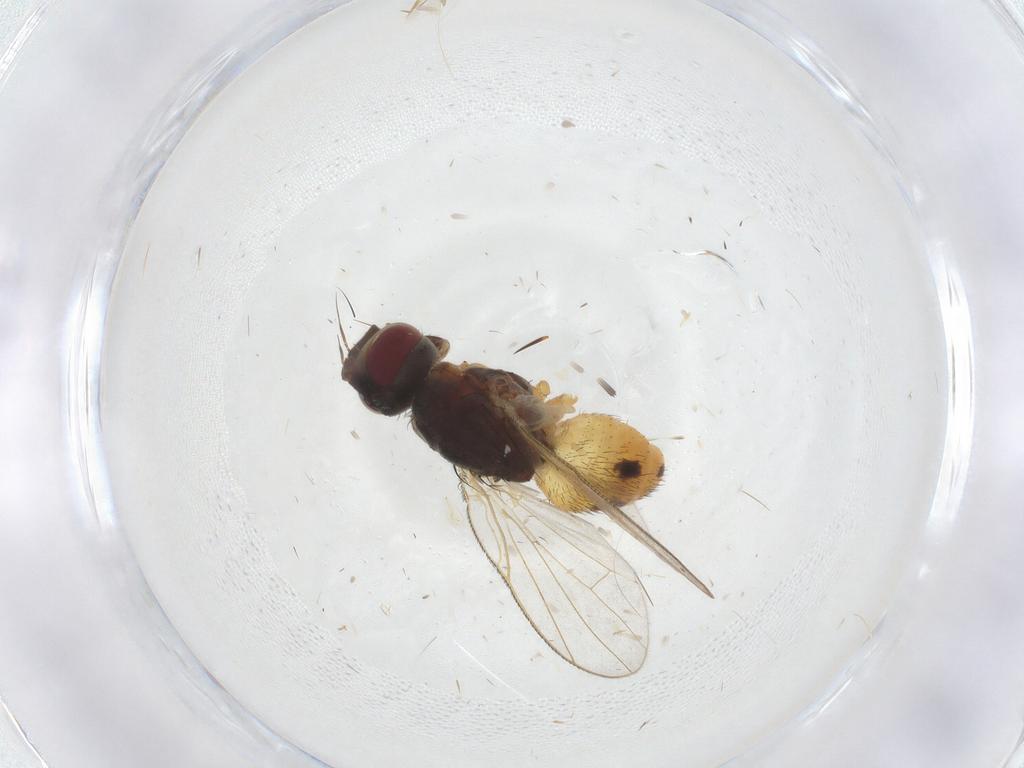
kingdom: Animalia
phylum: Arthropoda
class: Insecta
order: Diptera
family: Muscidae
